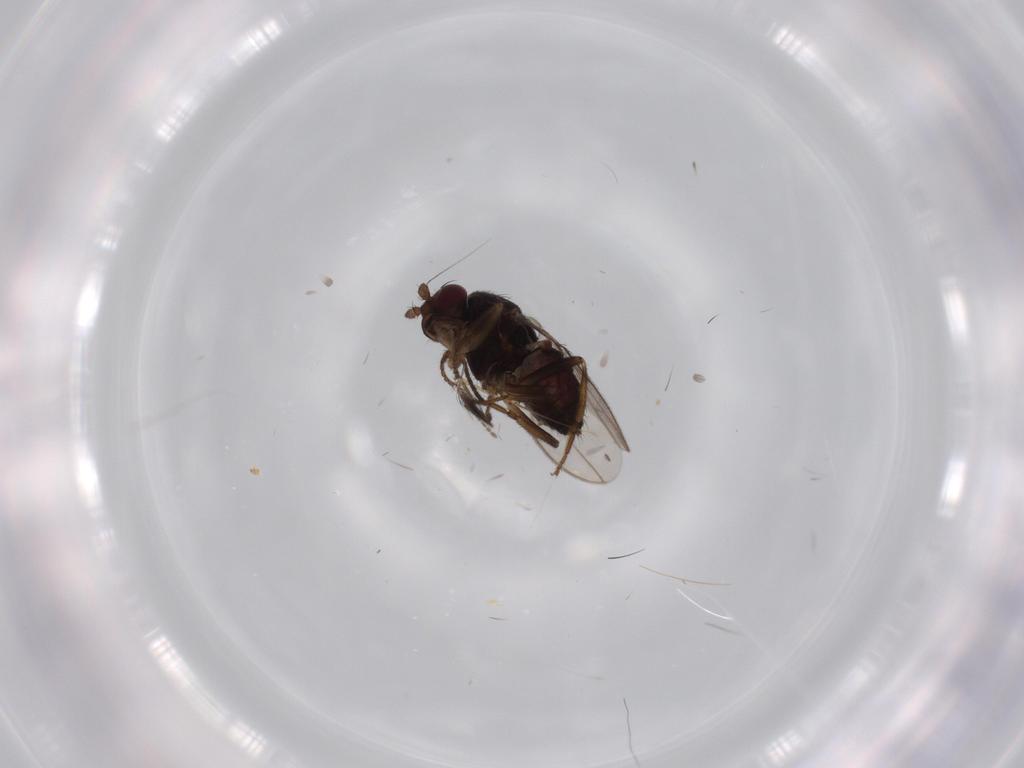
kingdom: Animalia
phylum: Arthropoda
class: Insecta
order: Diptera
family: Ceratopogonidae
